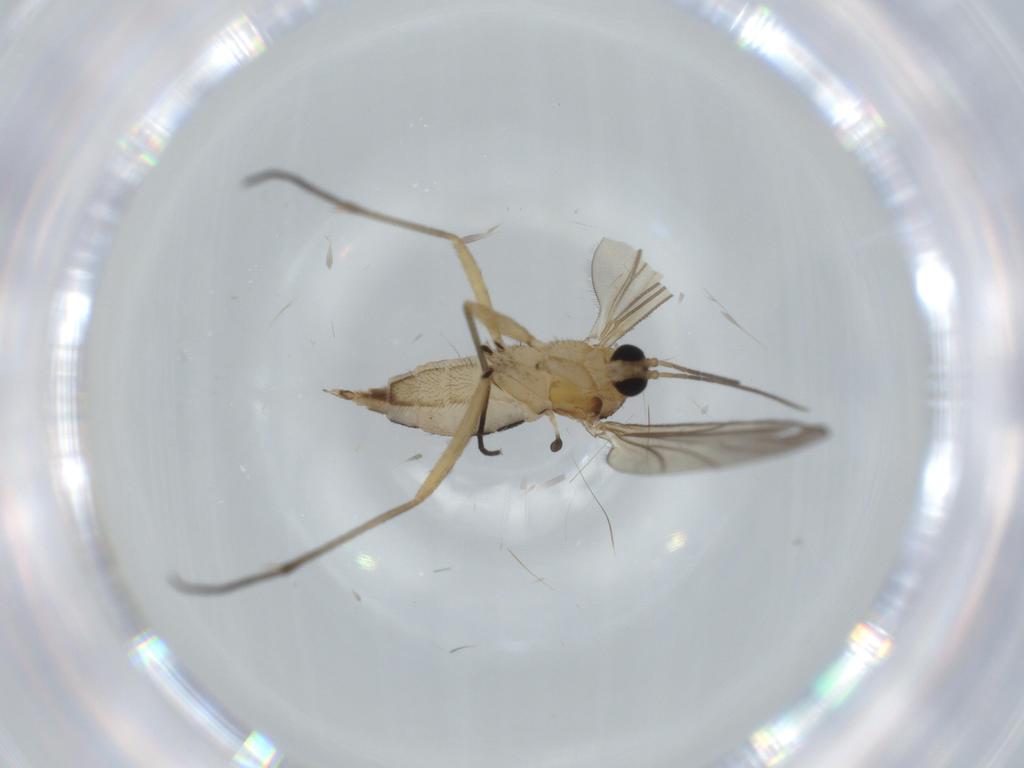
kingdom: Animalia
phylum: Arthropoda
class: Insecta
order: Diptera
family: Sciaridae
